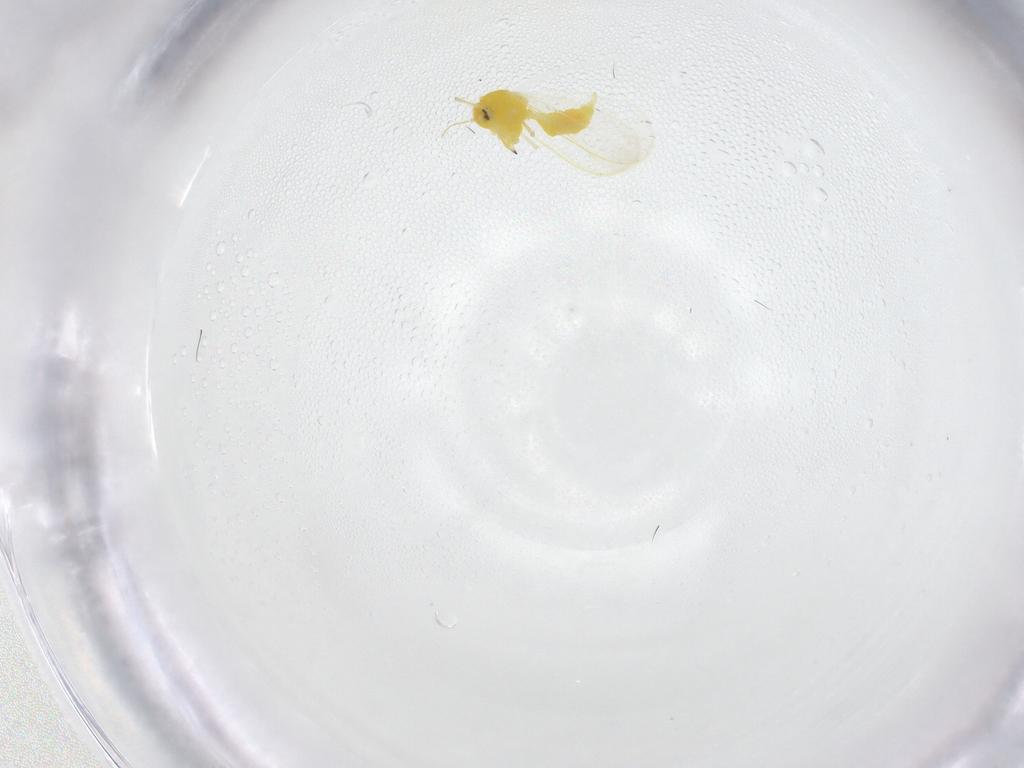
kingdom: Animalia
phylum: Arthropoda
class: Insecta
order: Hemiptera
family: Aleyrodidae
